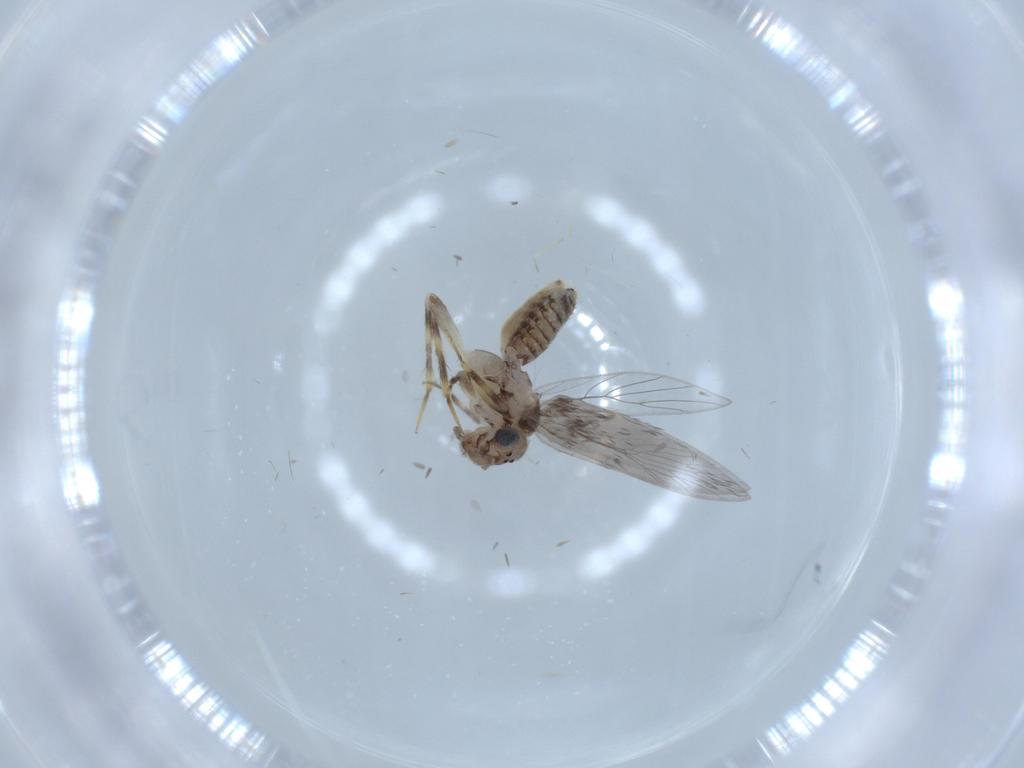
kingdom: Animalia
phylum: Arthropoda
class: Insecta
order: Psocodea
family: Lepidopsocidae
